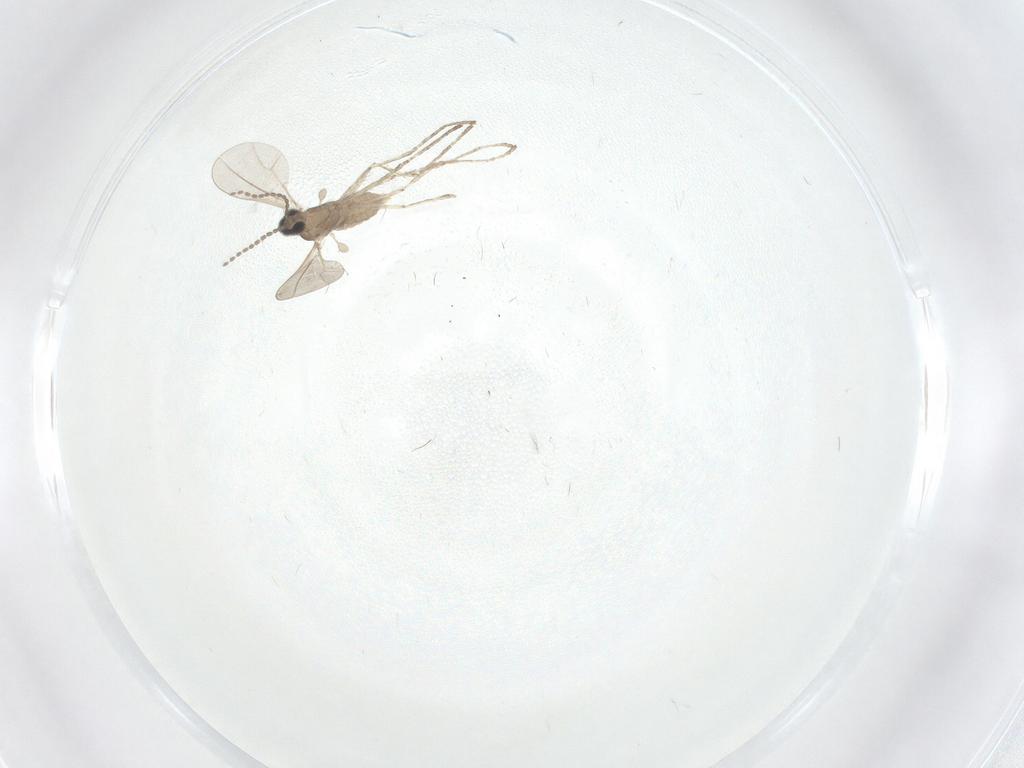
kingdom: Animalia
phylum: Arthropoda
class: Insecta
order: Diptera
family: Cecidomyiidae
